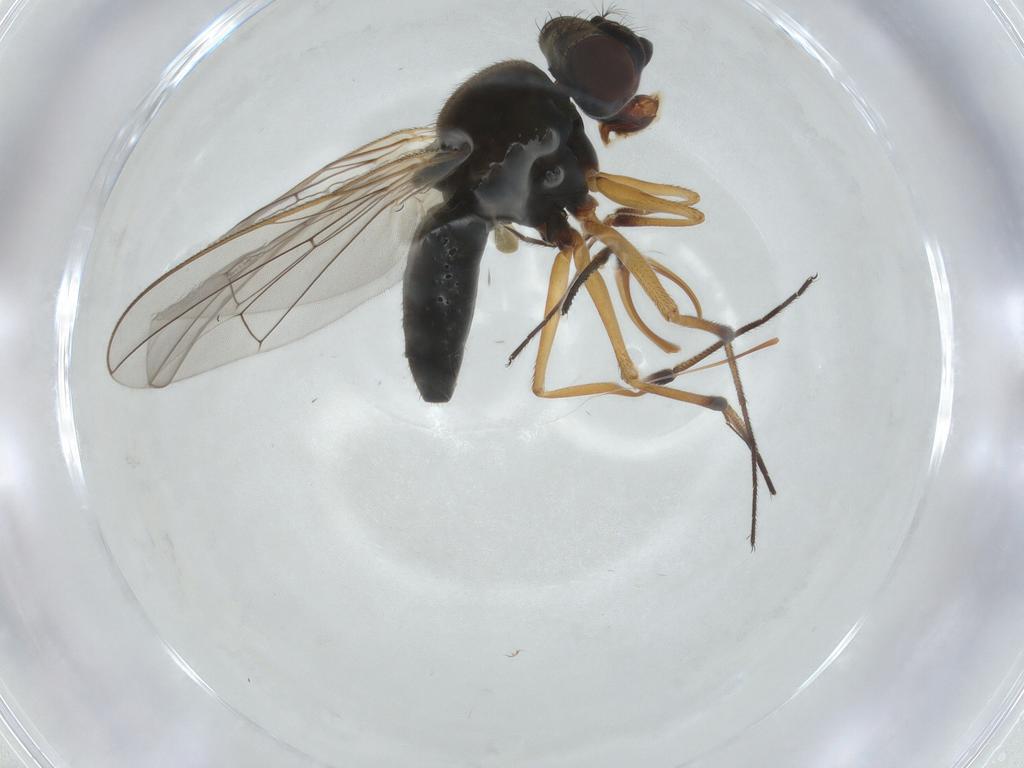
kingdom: Animalia
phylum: Arthropoda
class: Insecta
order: Diptera
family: Ephydridae
